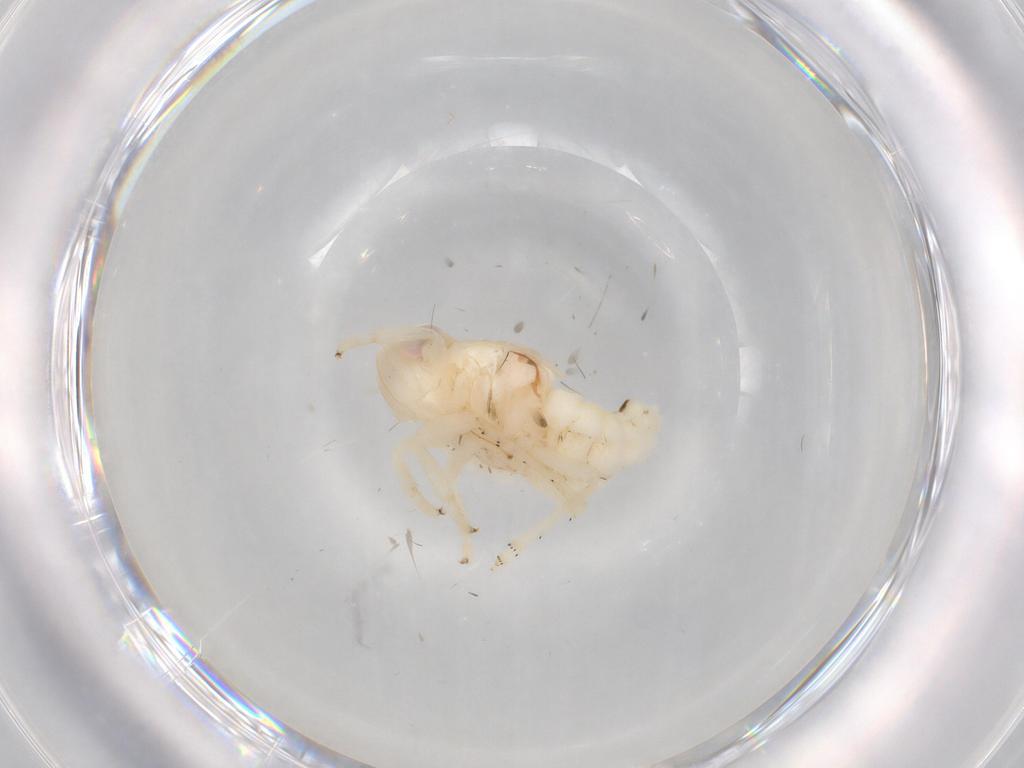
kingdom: Animalia
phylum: Arthropoda
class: Insecta
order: Hemiptera
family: Nogodinidae
